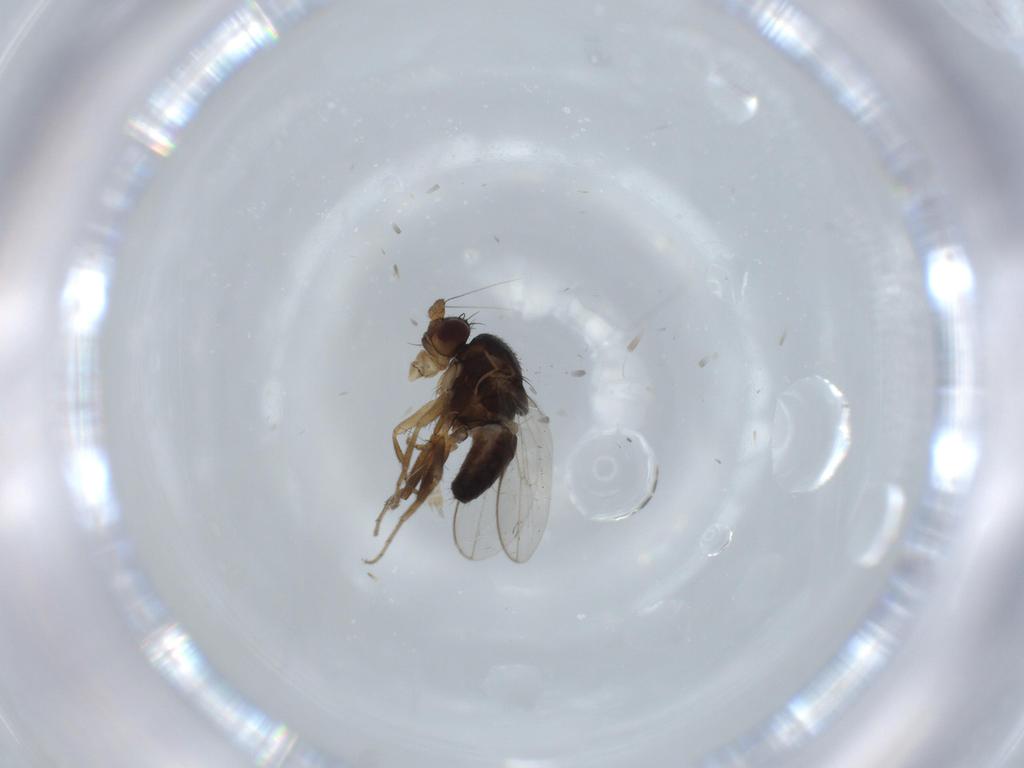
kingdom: Animalia
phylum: Arthropoda
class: Insecta
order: Diptera
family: Sphaeroceridae
